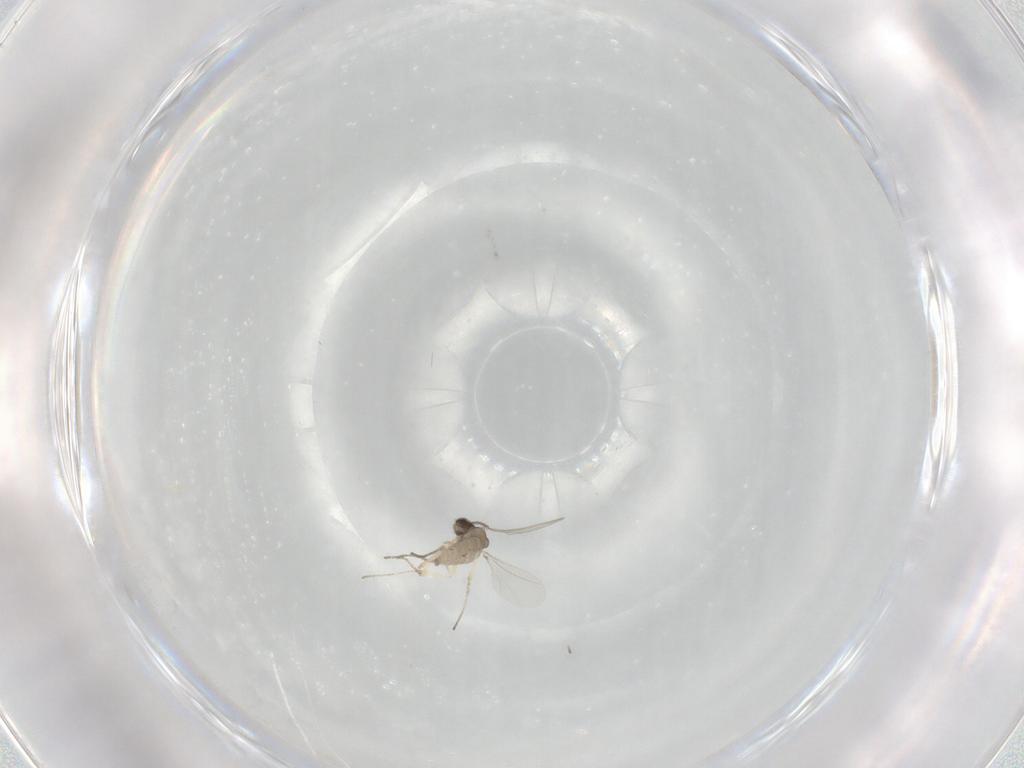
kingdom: Animalia
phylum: Arthropoda
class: Insecta
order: Diptera
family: Cecidomyiidae
